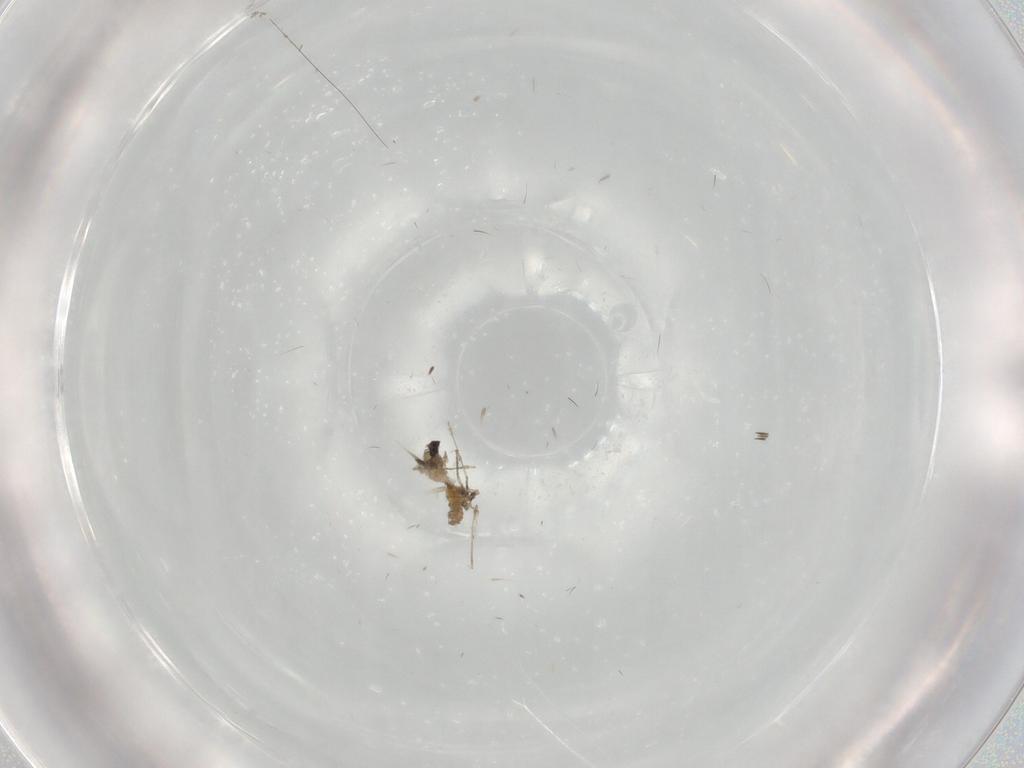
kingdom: Animalia
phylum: Arthropoda
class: Insecta
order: Diptera
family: Cecidomyiidae
